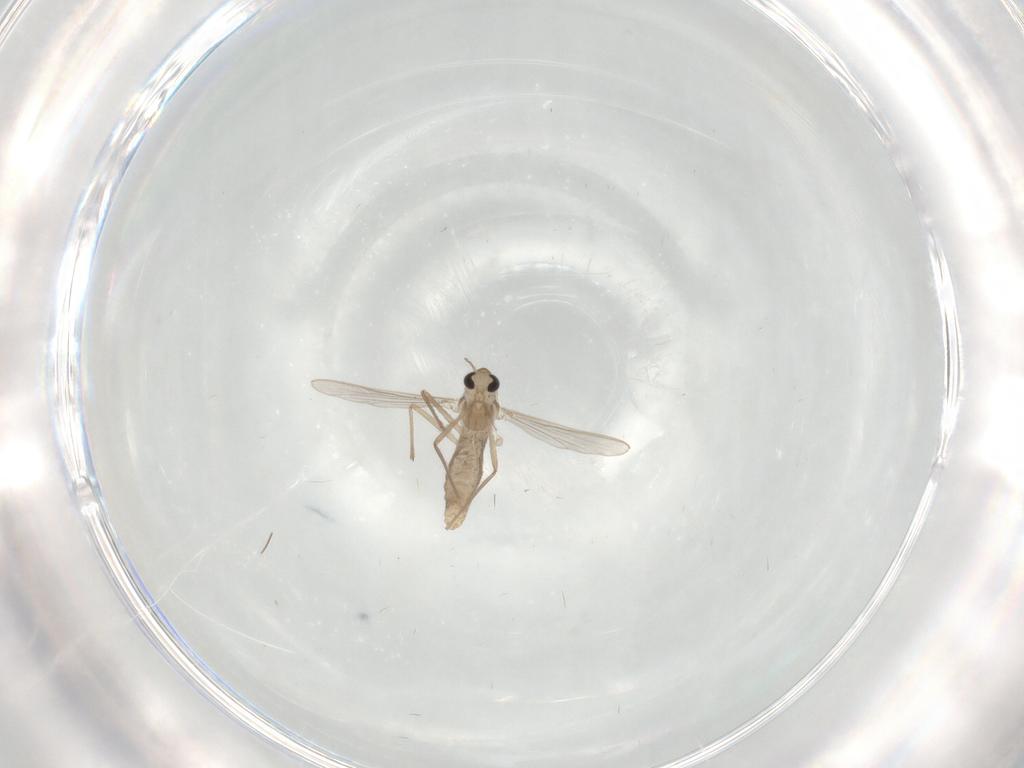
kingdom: Animalia
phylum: Arthropoda
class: Insecta
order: Diptera
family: Chironomidae
